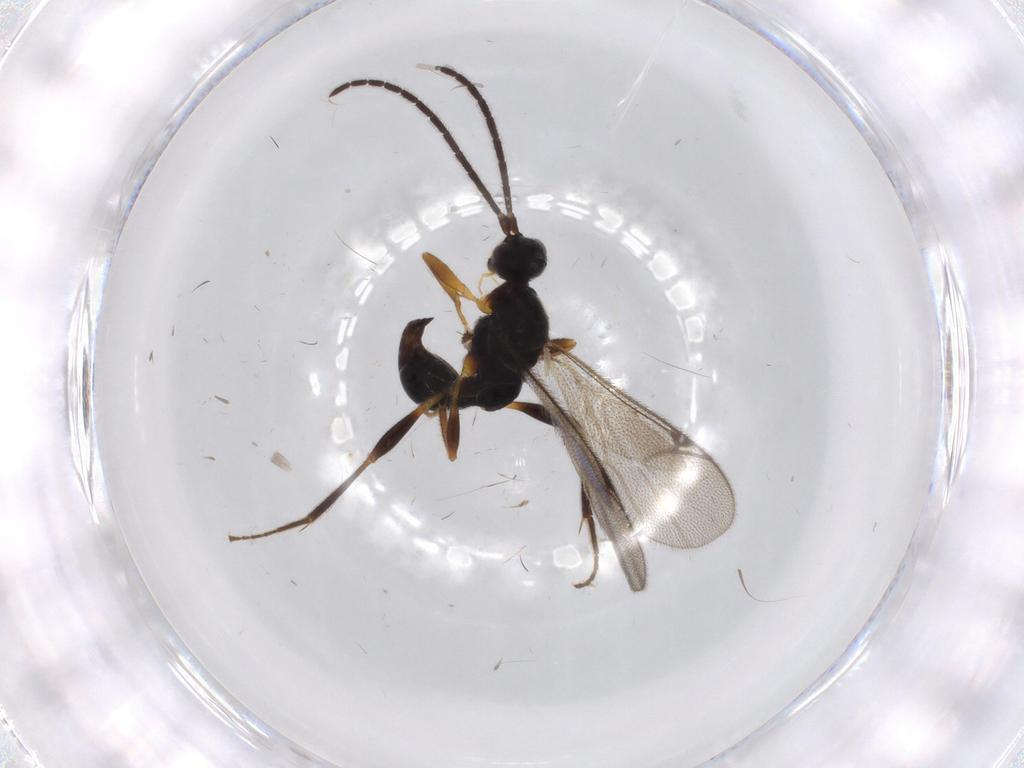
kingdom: Animalia
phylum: Arthropoda
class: Insecta
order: Hymenoptera
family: Proctotrupidae
